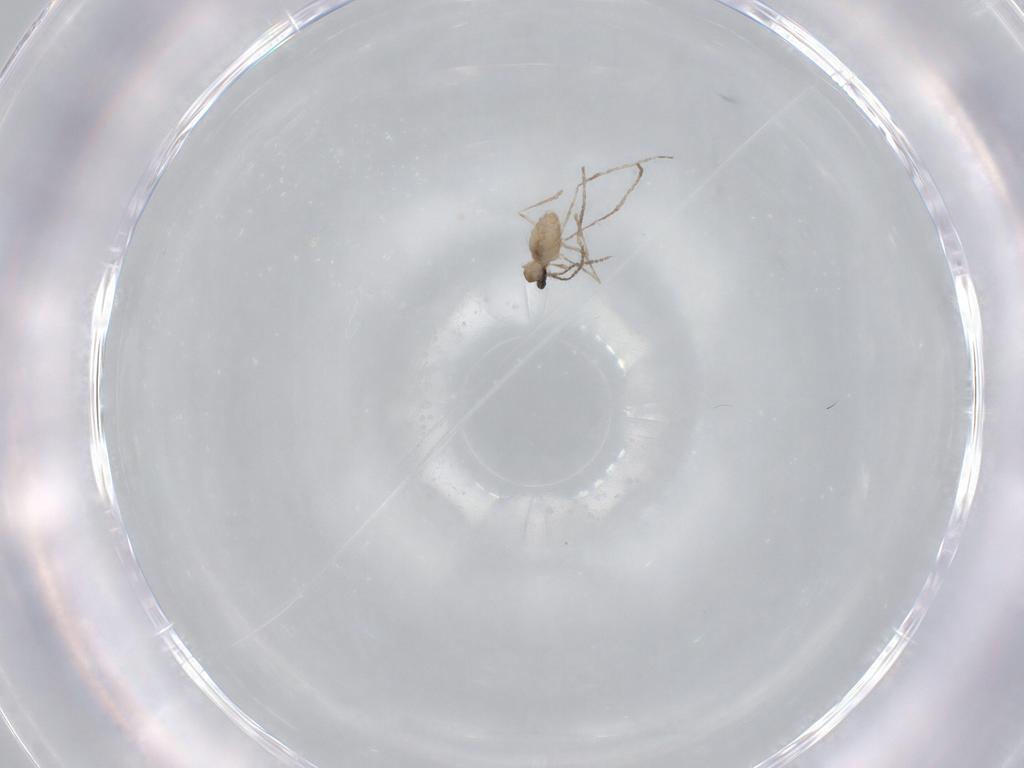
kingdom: Animalia
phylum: Arthropoda
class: Insecta
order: Diptera
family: Cecidomyiidae
